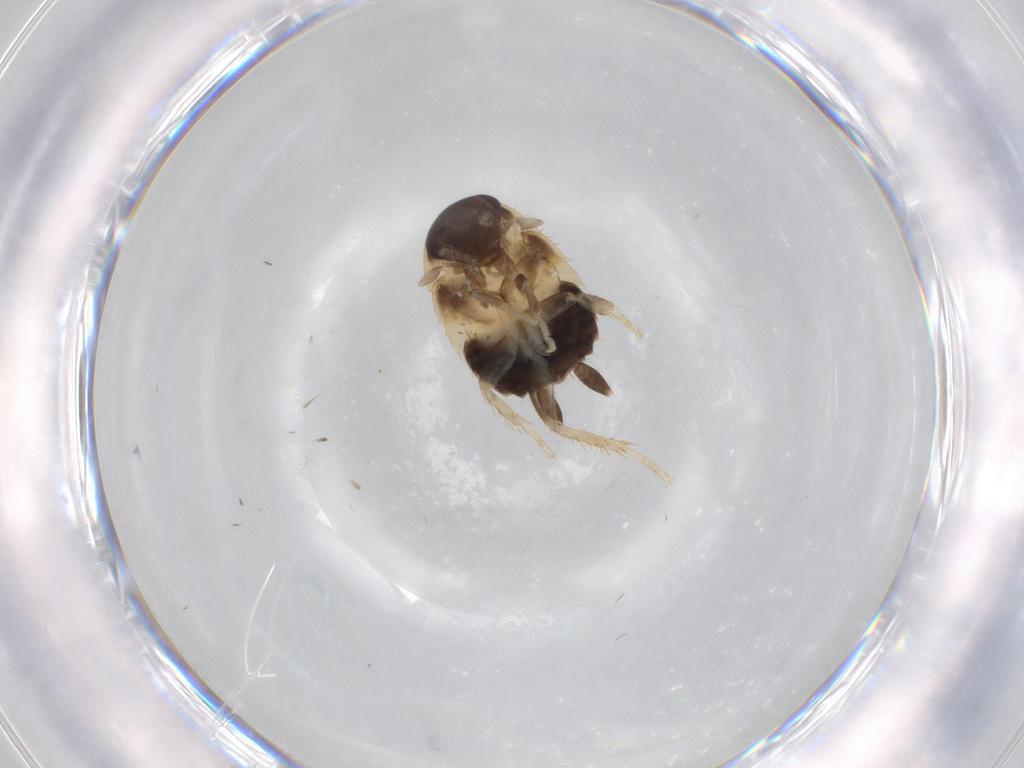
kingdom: Animalia
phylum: Arthropoda
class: Insecta
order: Blattodea
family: Ectobiidae
